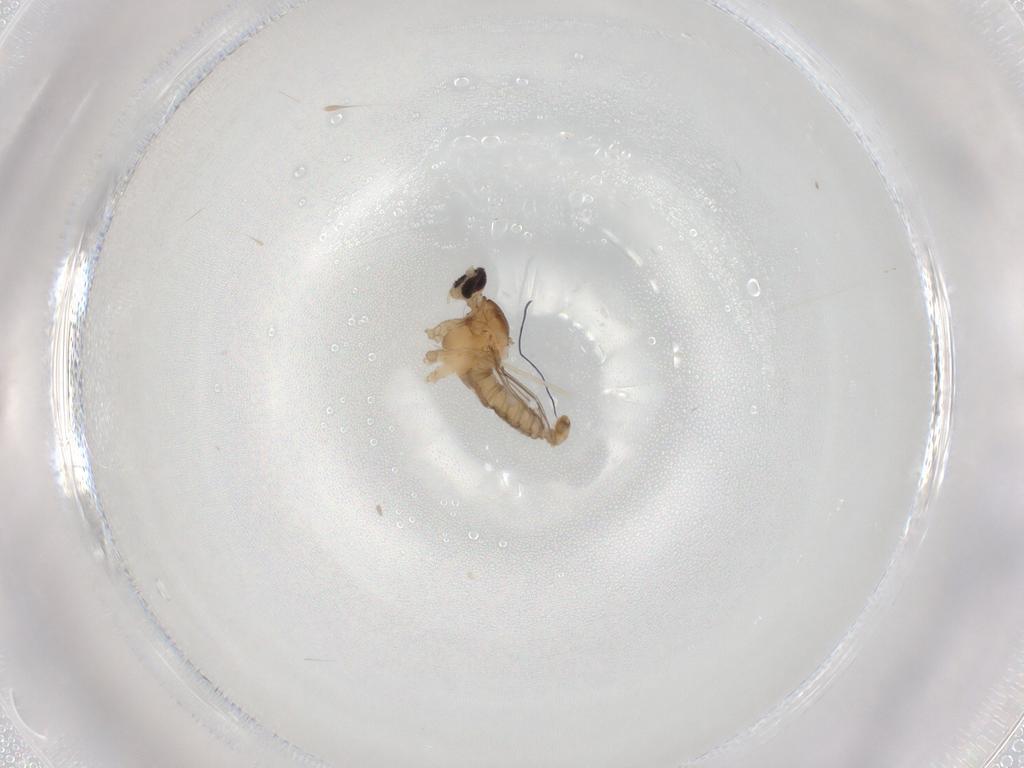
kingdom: Animalia
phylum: Arthropoda
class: Insecta
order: Diptera
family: Cecidomyiidae
